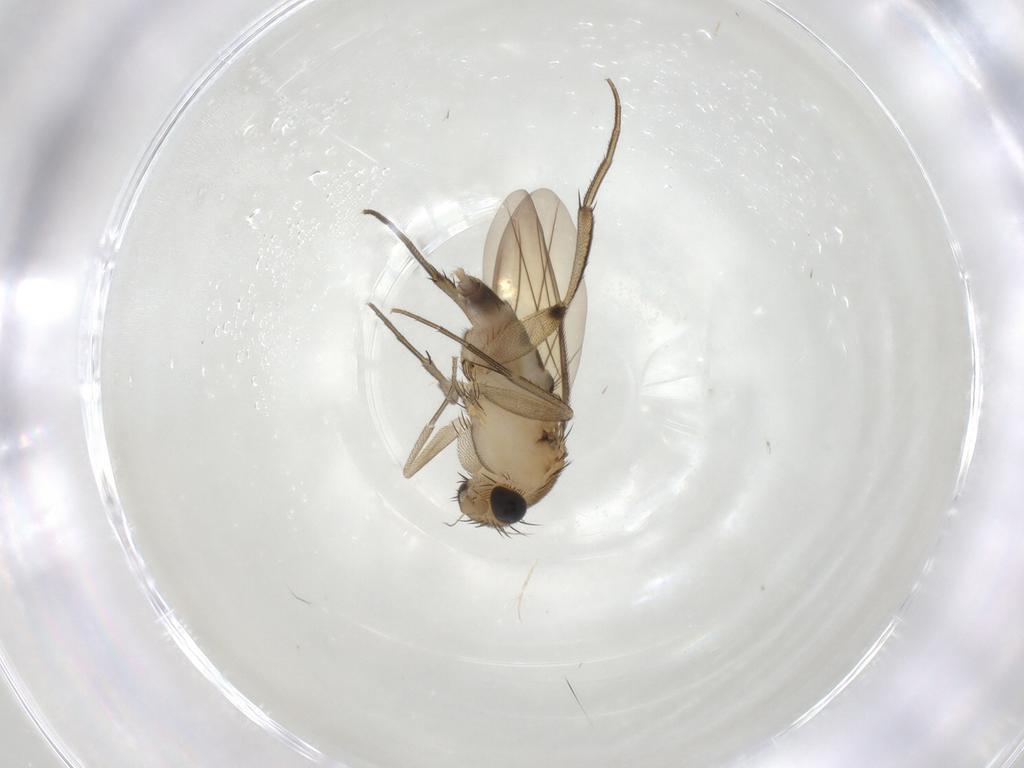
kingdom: Animalia
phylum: Arthropoda
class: Insecta
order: Diptera
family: Phoridae
